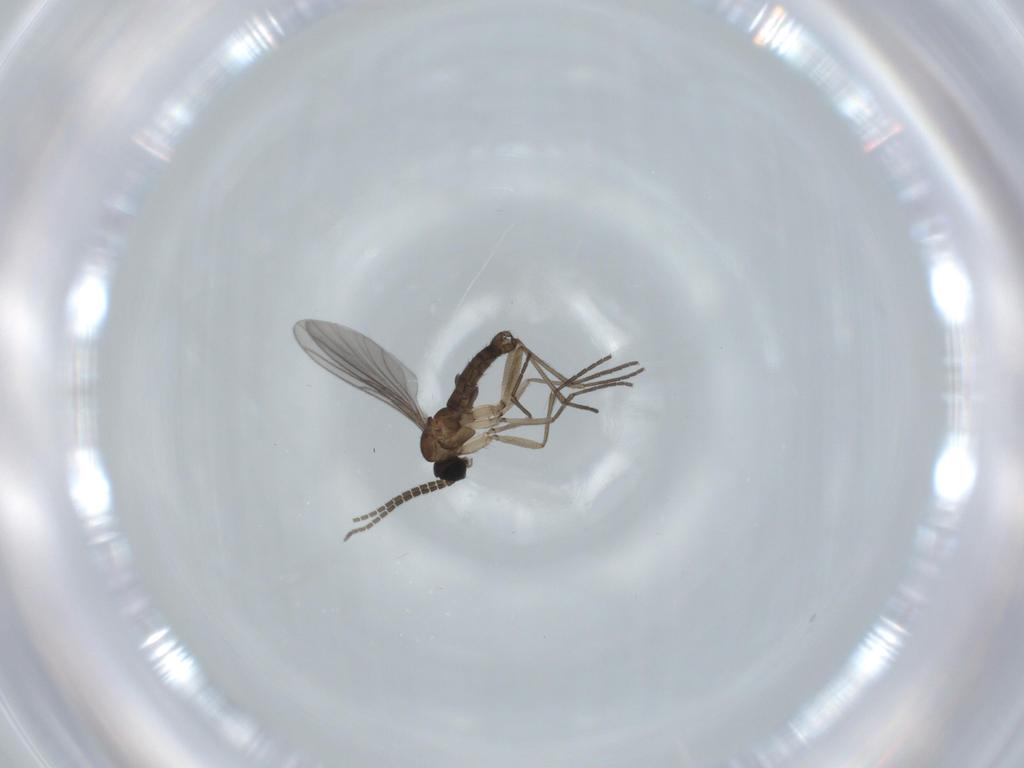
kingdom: Animalia
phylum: Arthropoda
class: Insecta
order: Diptera
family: Sciaridae
